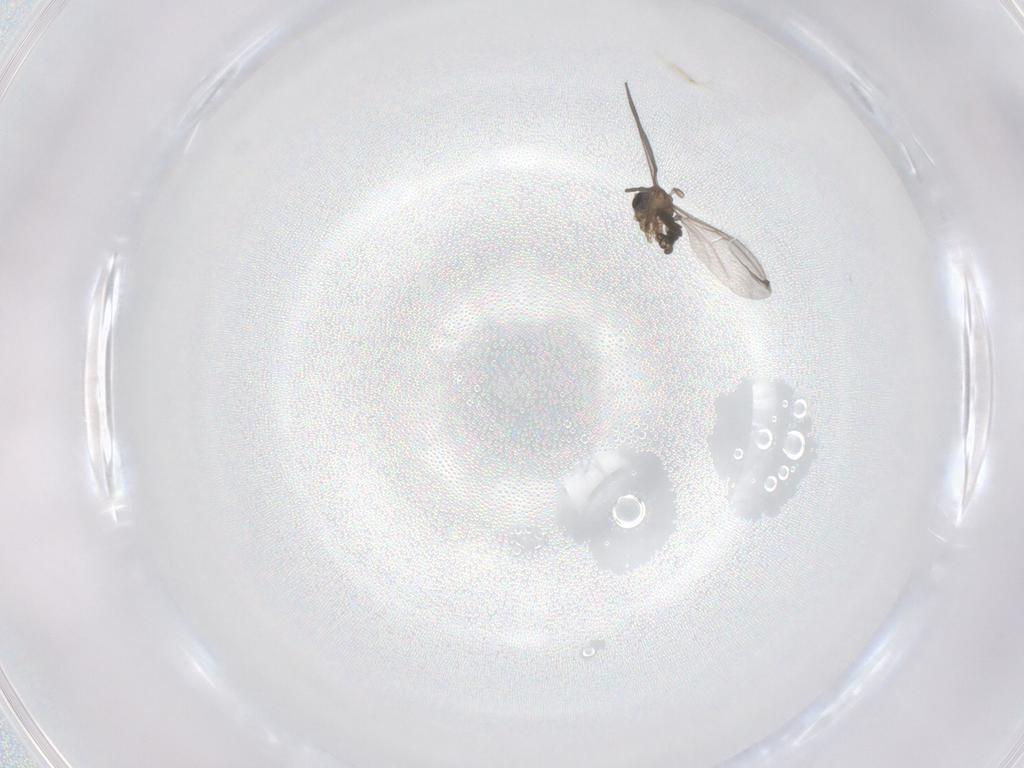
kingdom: Animalia
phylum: Arthropoda
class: Insecta
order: Diptera
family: Sciaridae
